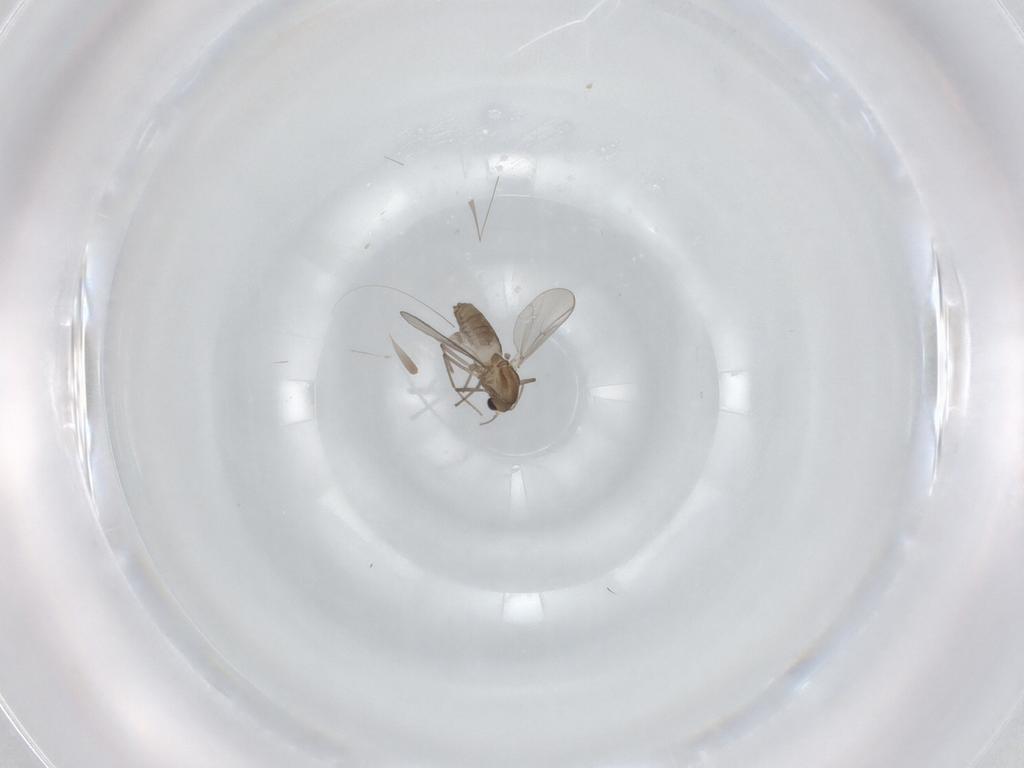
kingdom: Animalia
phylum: Arthropoda
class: Insecta
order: Diptera
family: Chironomidae
